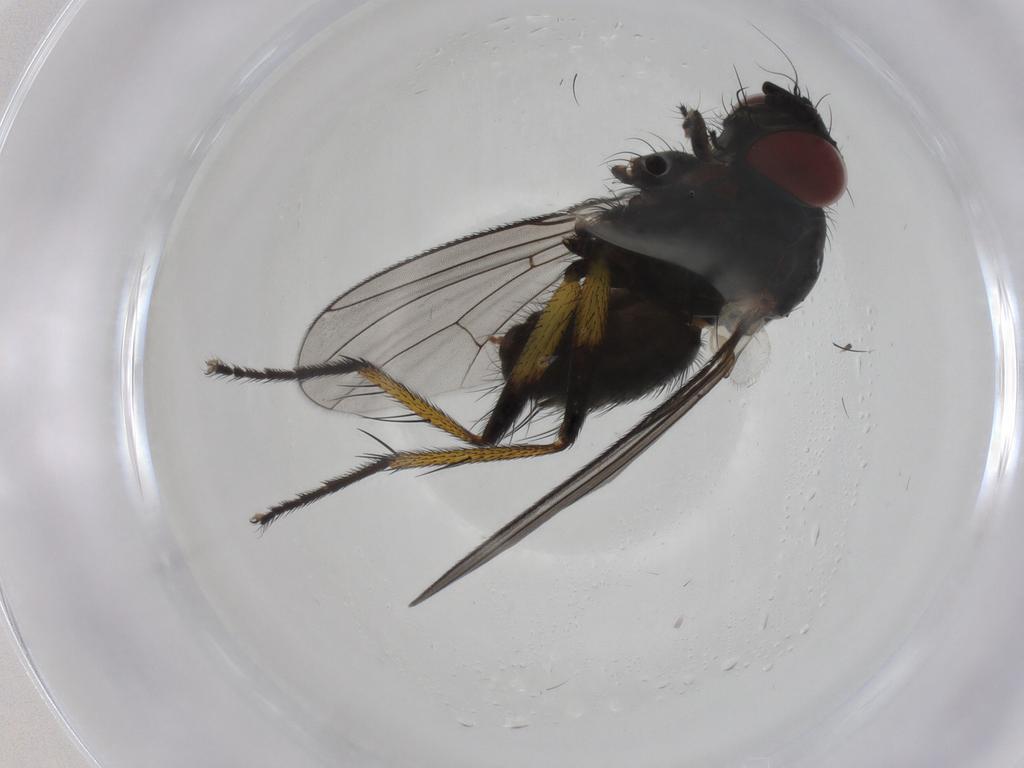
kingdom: Animalia
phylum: Arthropoda
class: Insecta
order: Diptera
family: Muscidae
